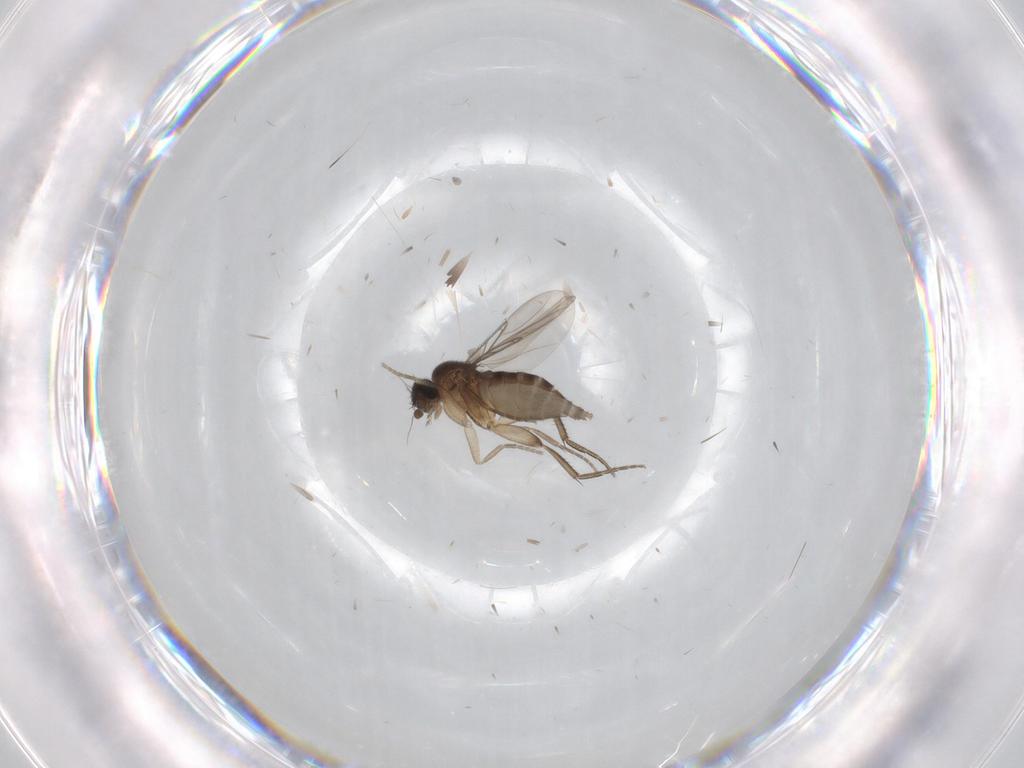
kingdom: Animalia
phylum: Arthropoda
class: Insecta
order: Diptera
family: Phoridae
